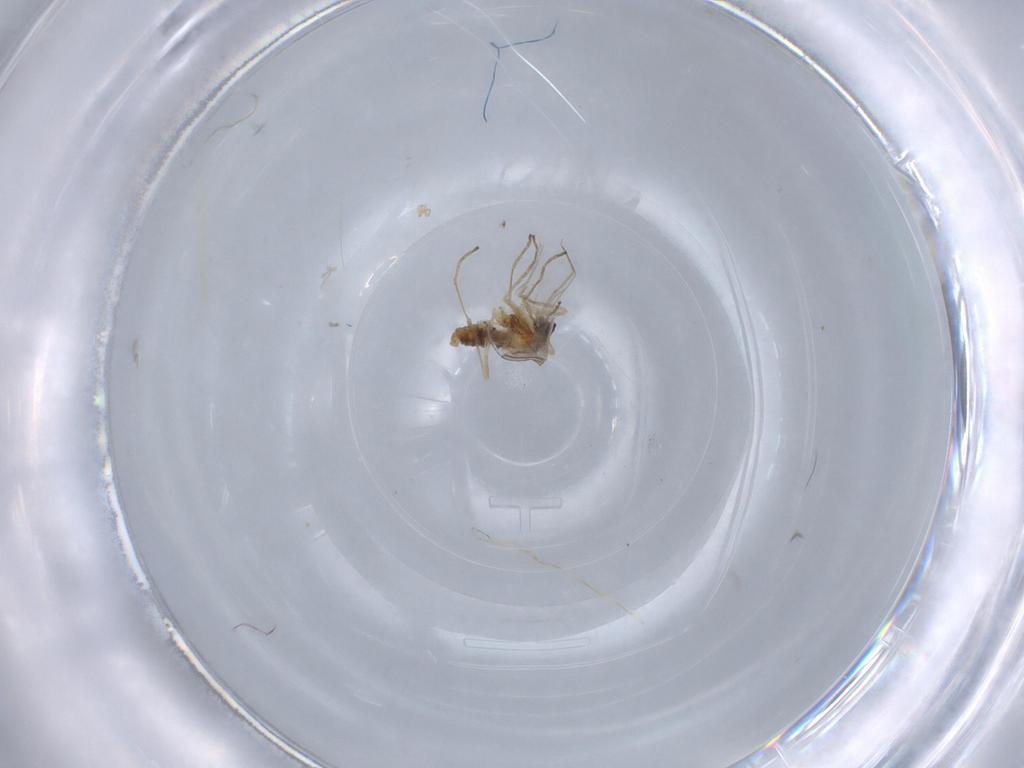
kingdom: Animalia
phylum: Arthropoda
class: Insecta
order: Diptera
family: Cecidomyiidae
